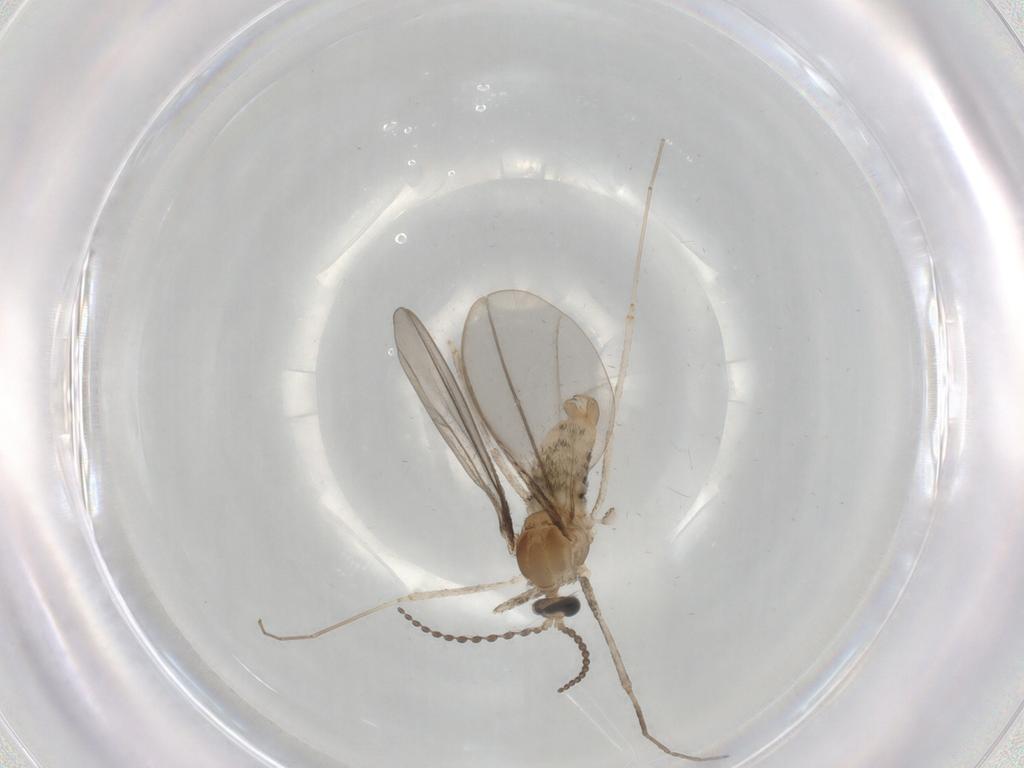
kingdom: Animalia
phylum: Arthropoda
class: Insecta
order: Diptera
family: Cecidomyiidae
